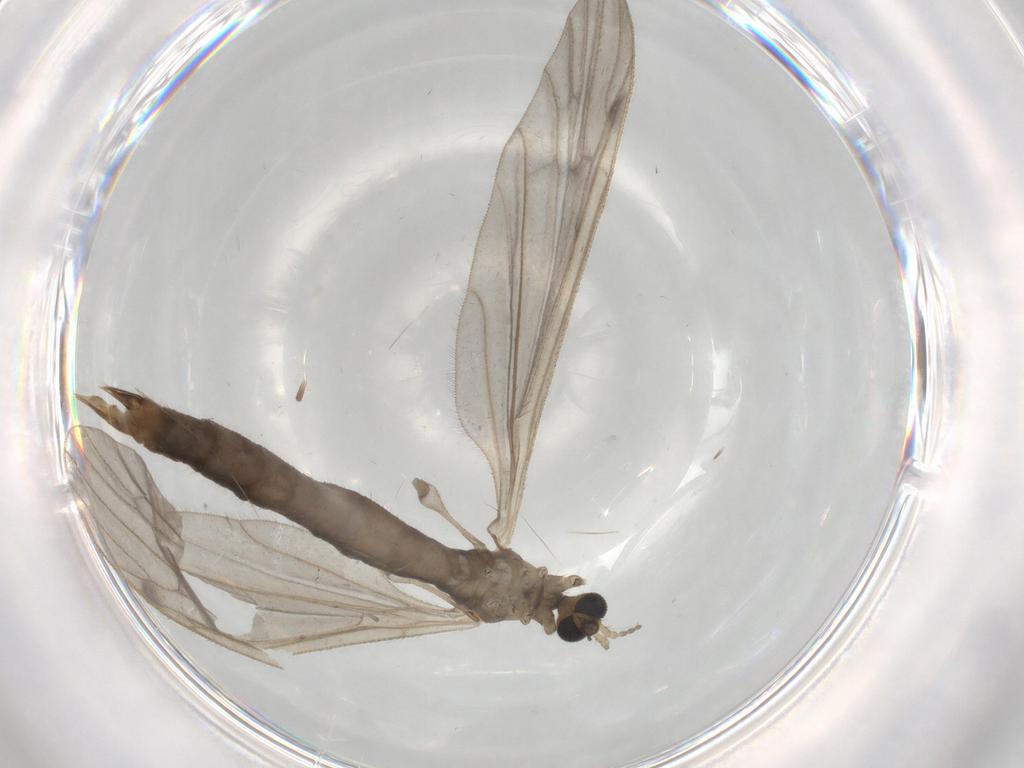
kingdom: Animalia
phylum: Arthropoda
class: Insecta
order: Diptera
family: Limoniidae
